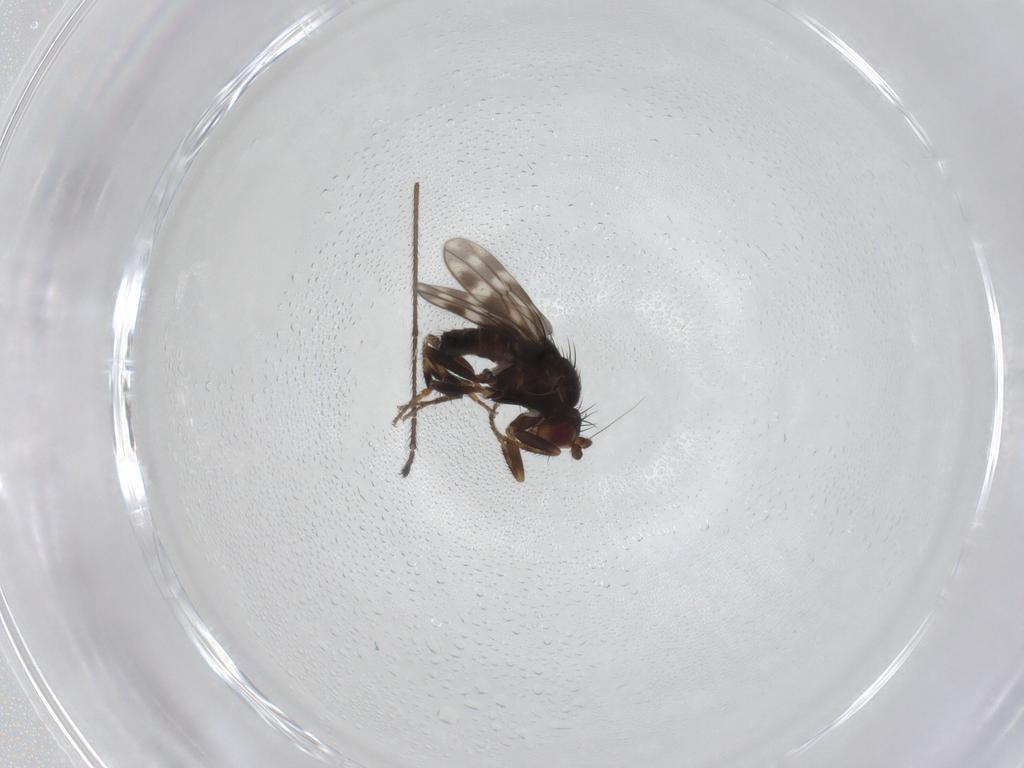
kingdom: Animalia
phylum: Arthropoda
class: Insecta
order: Diptera
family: Sphaeroceridae
